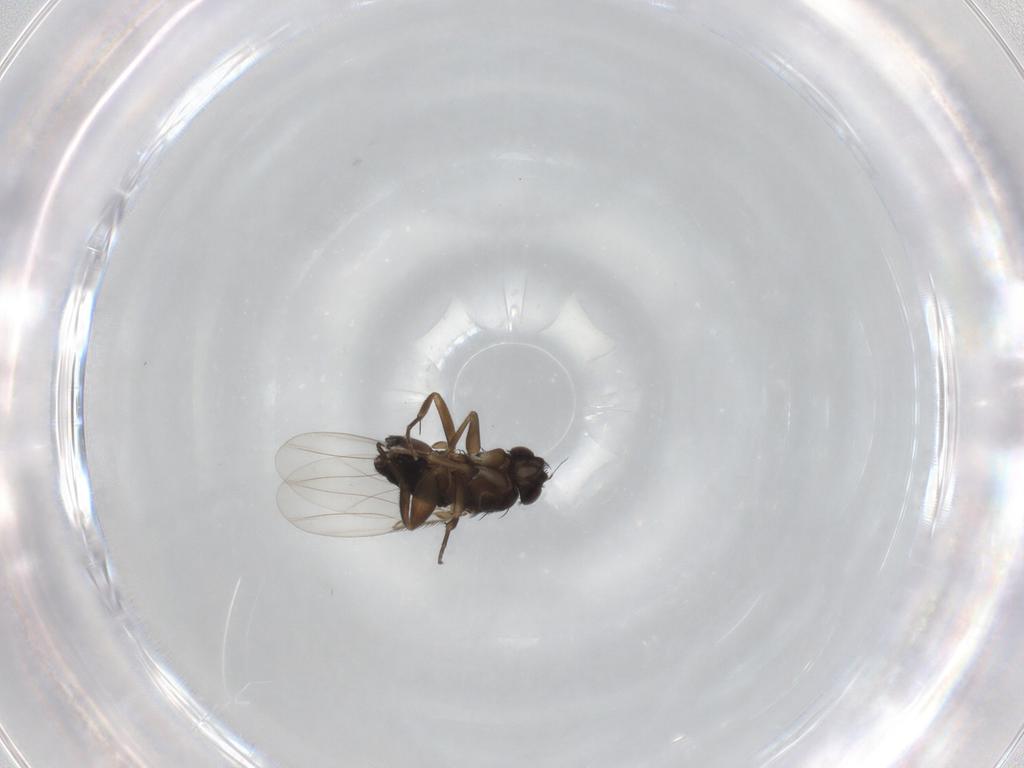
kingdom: Animalia
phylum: Arthropoda
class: Insecta
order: Diptera
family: Phoridae
